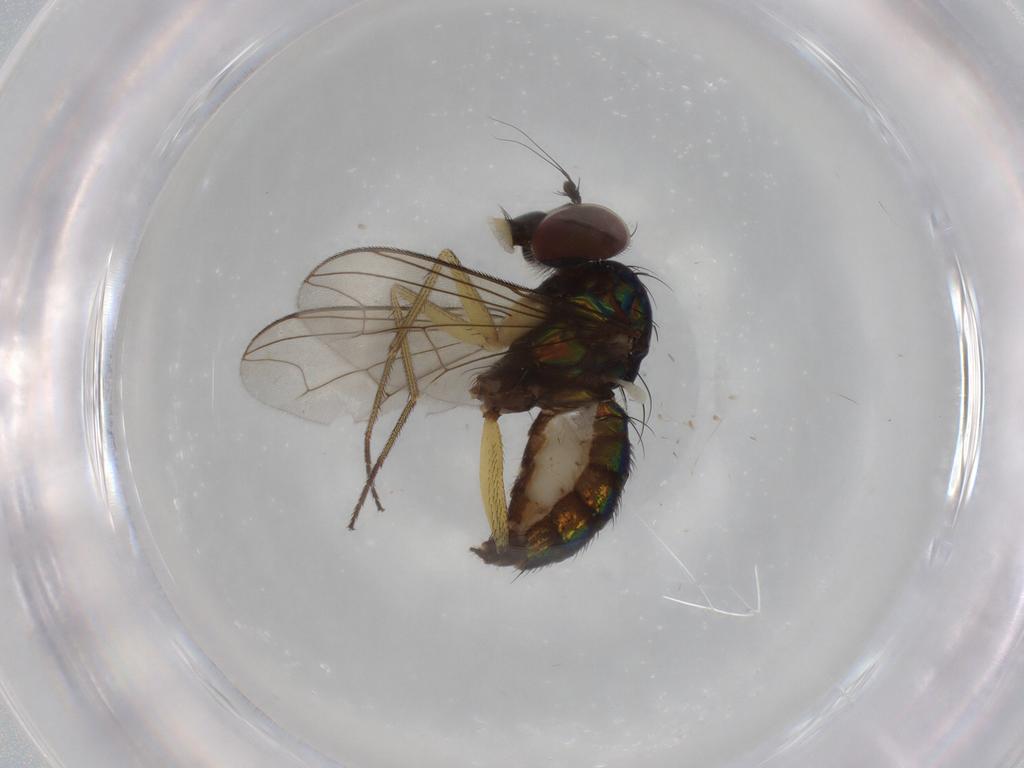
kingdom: Animalia
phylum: Arthropoda
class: Insecta
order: Diptera
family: Dolichopodidae
